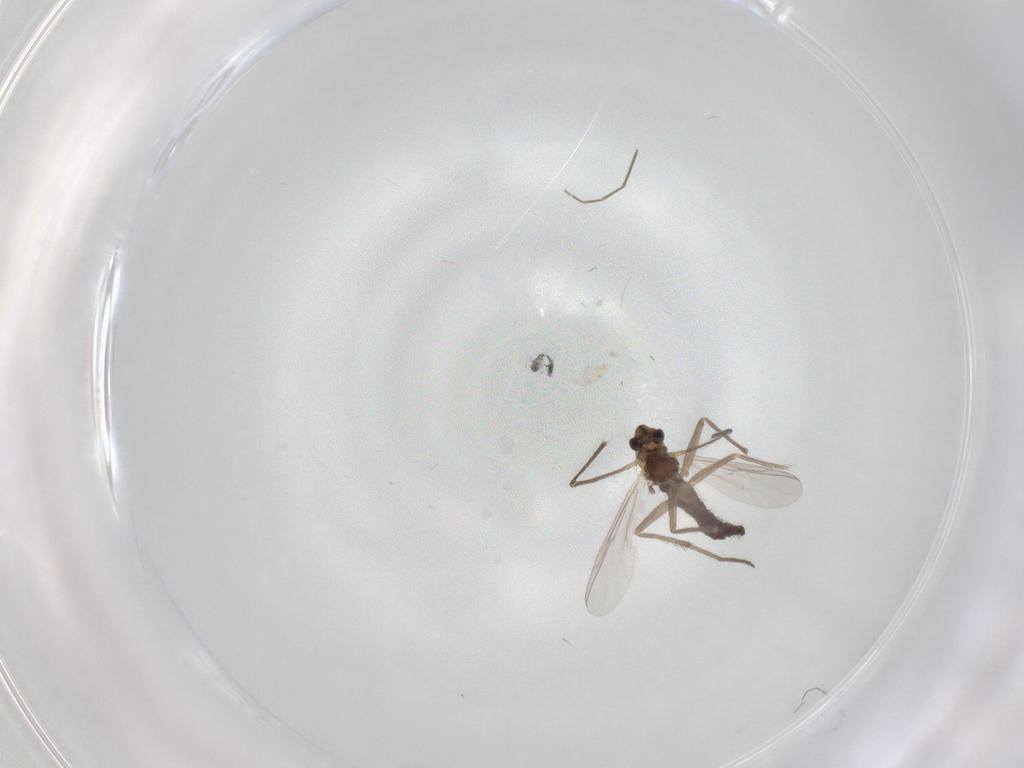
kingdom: Animalia
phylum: Arthropoda
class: Insecta
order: Diptera
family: Chironomidae
